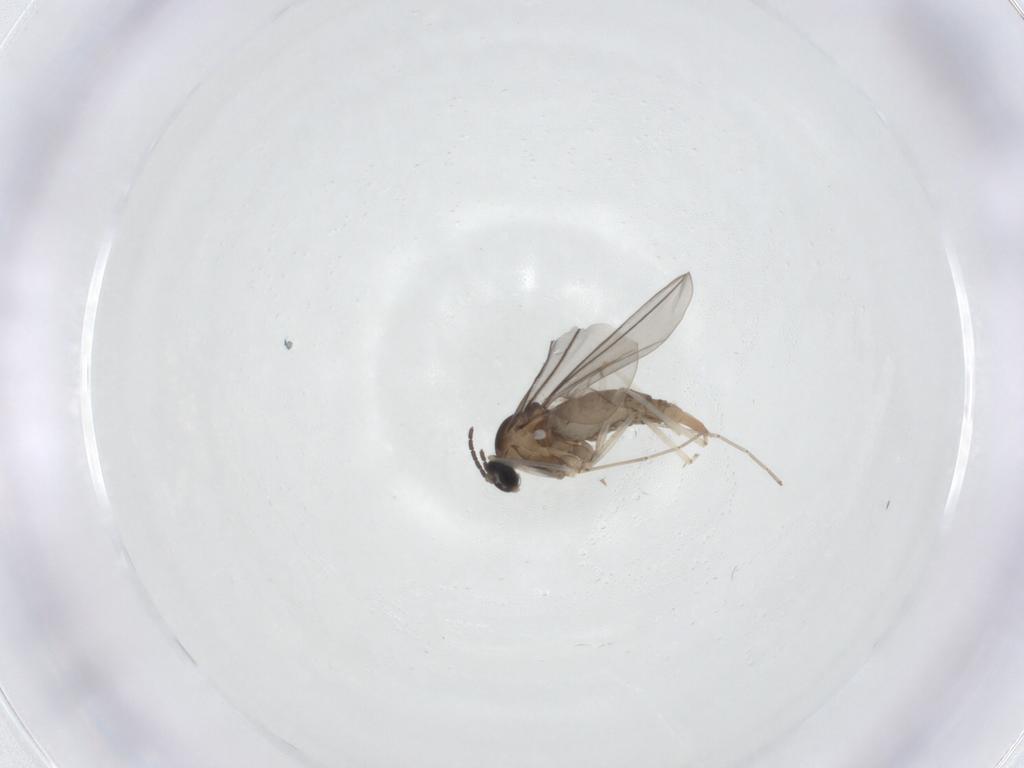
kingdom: Animalia
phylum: Arthropoda
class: Insecta
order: Diptera
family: Cecidomyiidae
